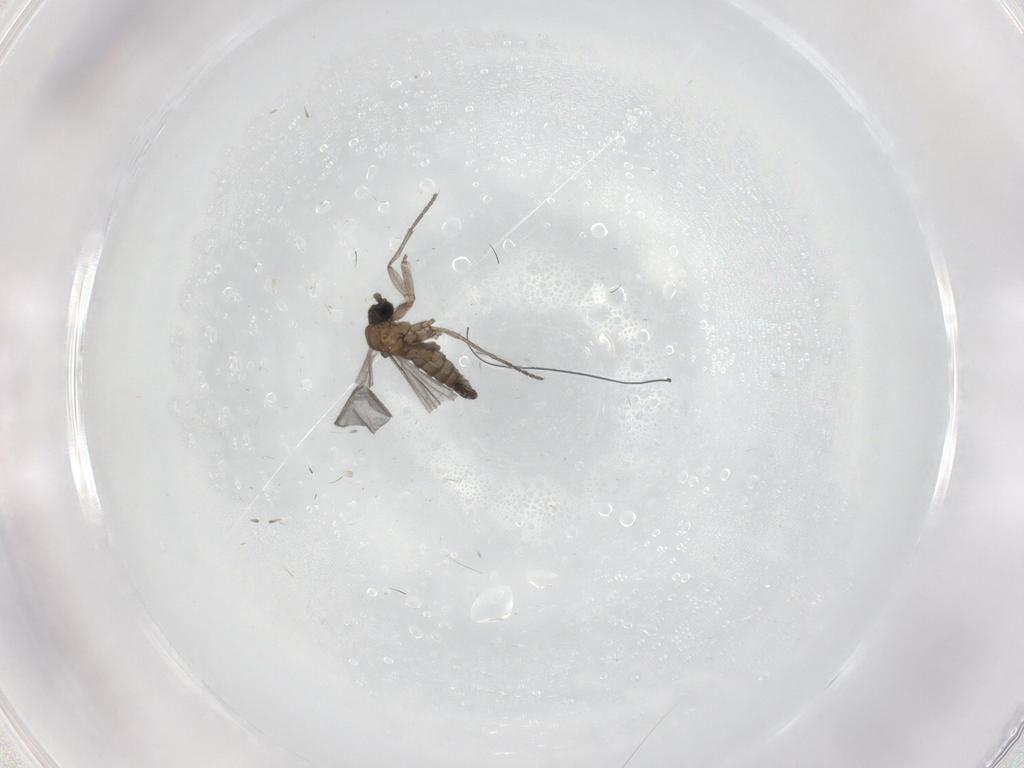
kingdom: Animalia
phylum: Arthropoda
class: Insecta
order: Diptera
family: Sciaridae
